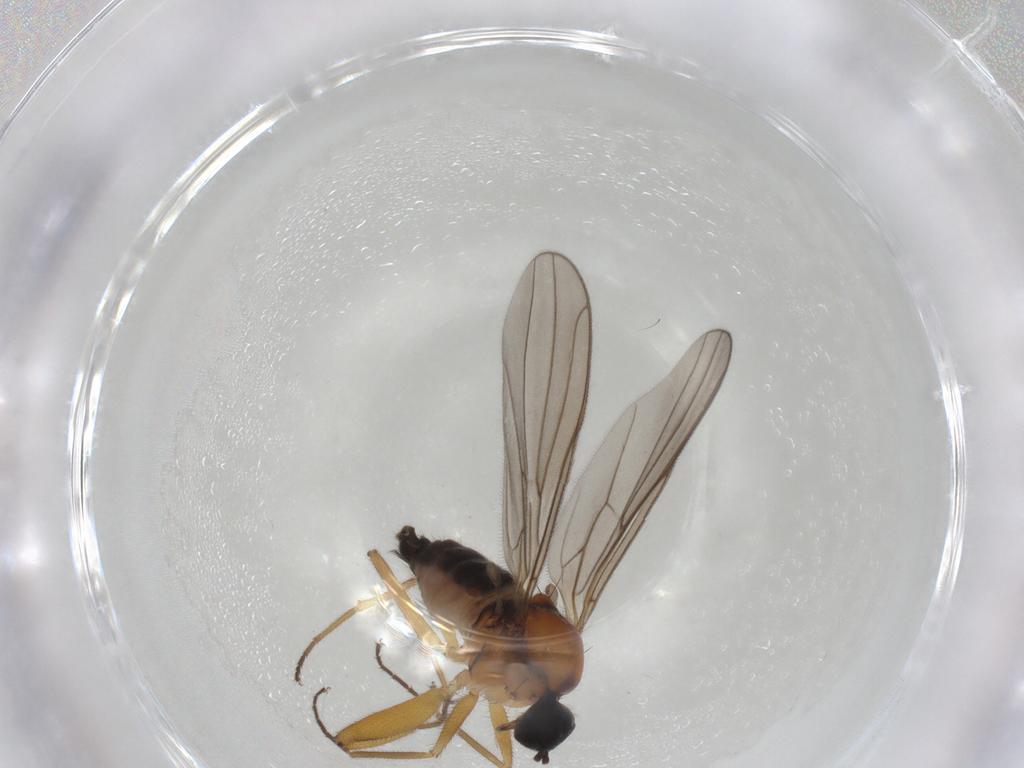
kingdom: Animalia
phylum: Arthropoda
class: Insecta
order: Diptera
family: Hybotidae
